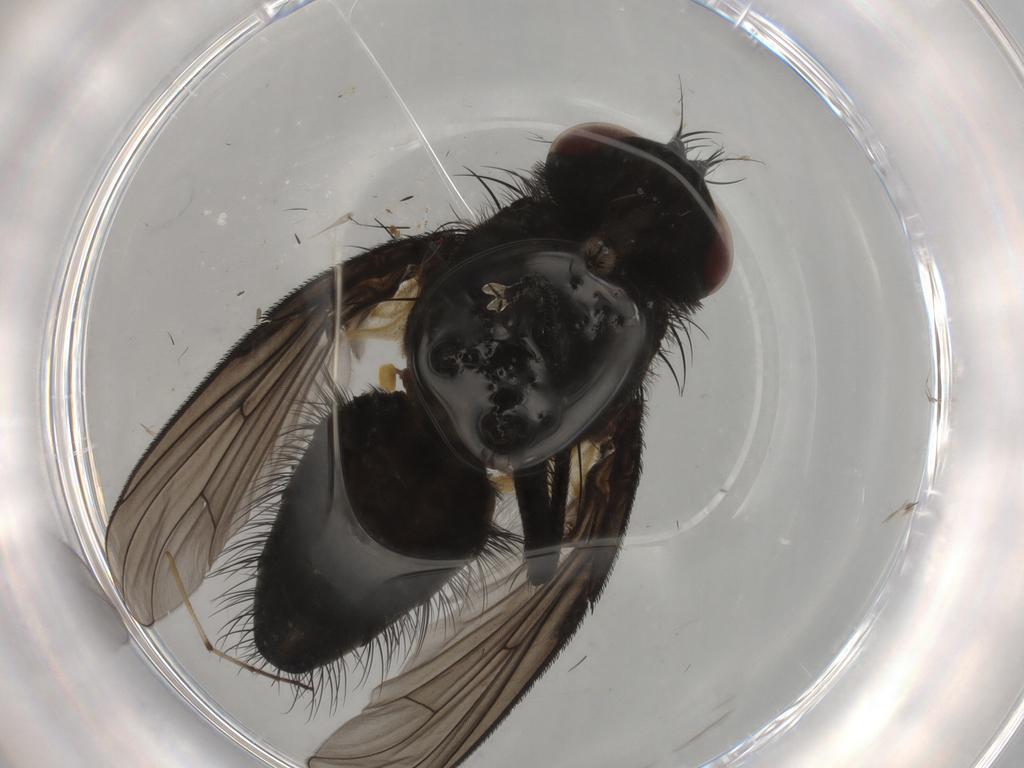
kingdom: Animalia
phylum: Arthropoda
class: Insecta
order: Diptera
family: Muscidae
